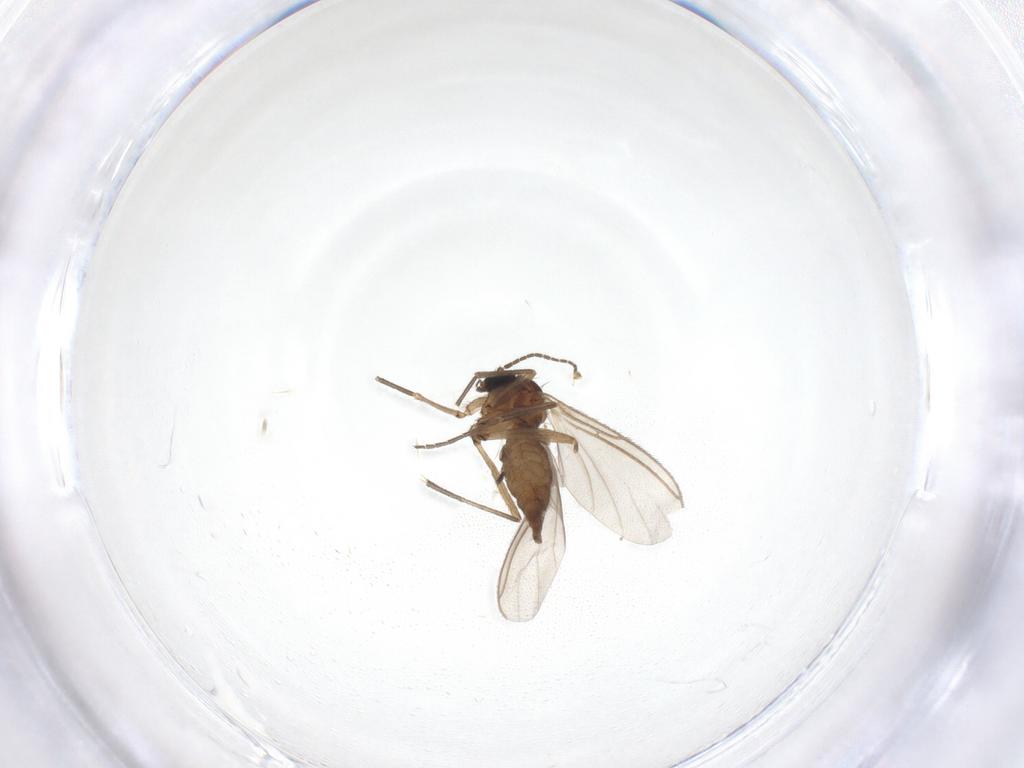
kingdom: Animalia
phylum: Arthropoda
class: Insecta
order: Diptera
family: Sciaridae
